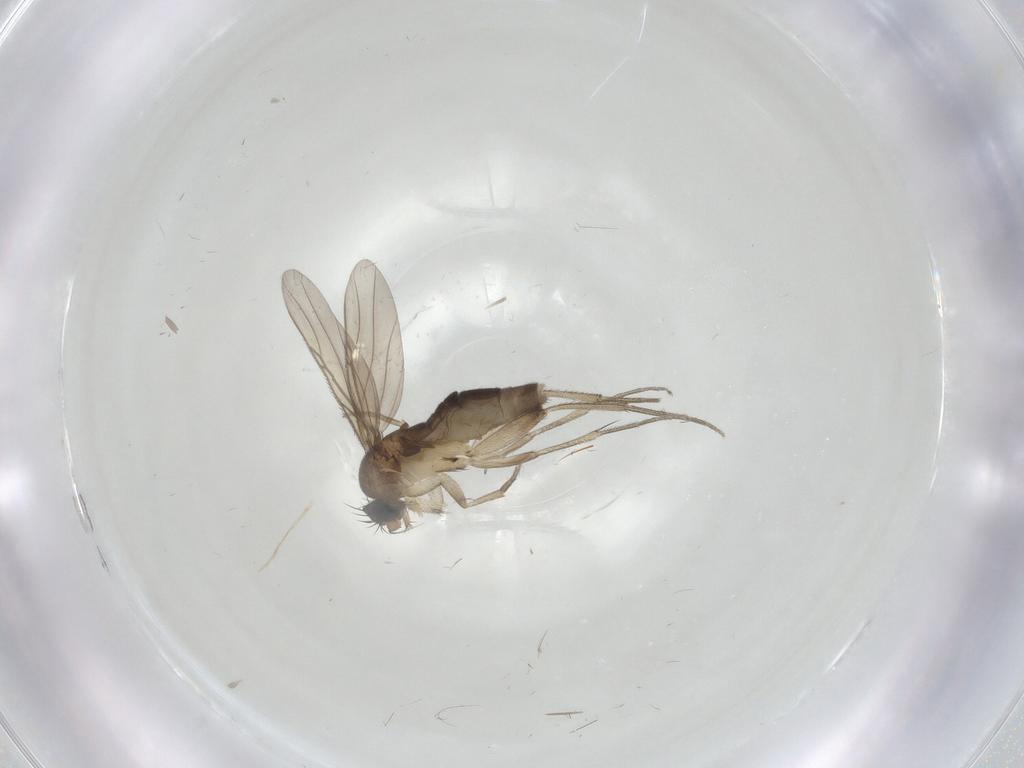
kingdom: Animalia
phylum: Arthropoda
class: Insecta
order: Diptera
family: Phoridae
